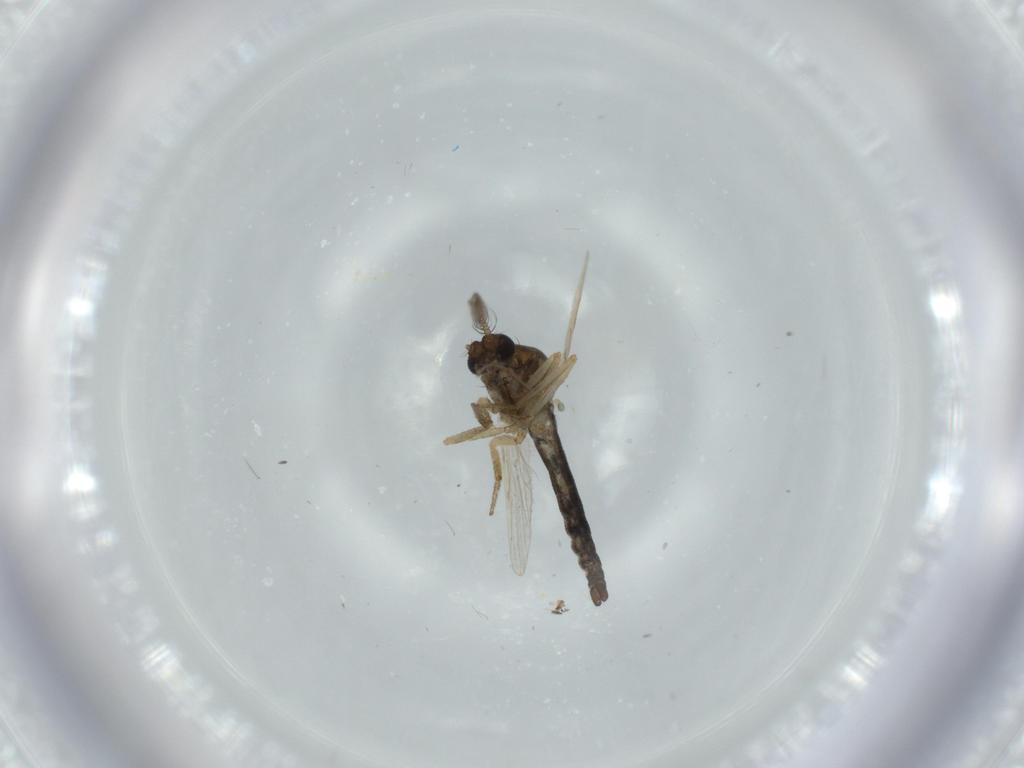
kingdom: Animalia
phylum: Arthropoda
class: Insecta
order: Diptera
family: Ceratopogonidae
